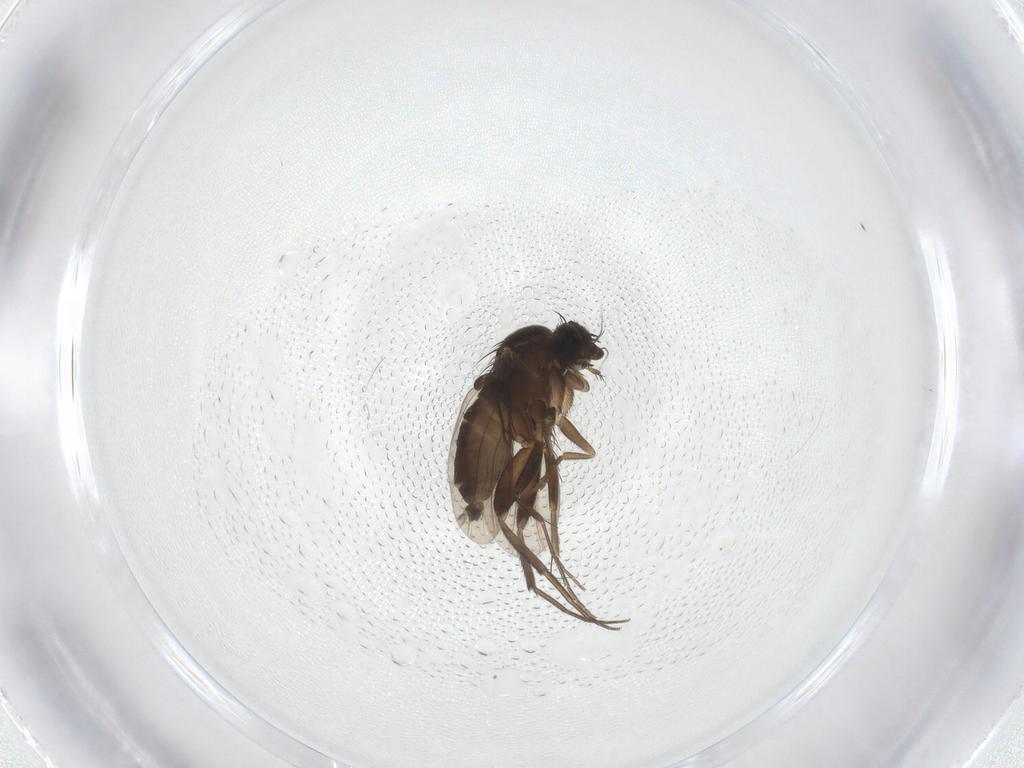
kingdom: Animalia
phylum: Arthropoda
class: Insecta
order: Diptera
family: Phoridae
